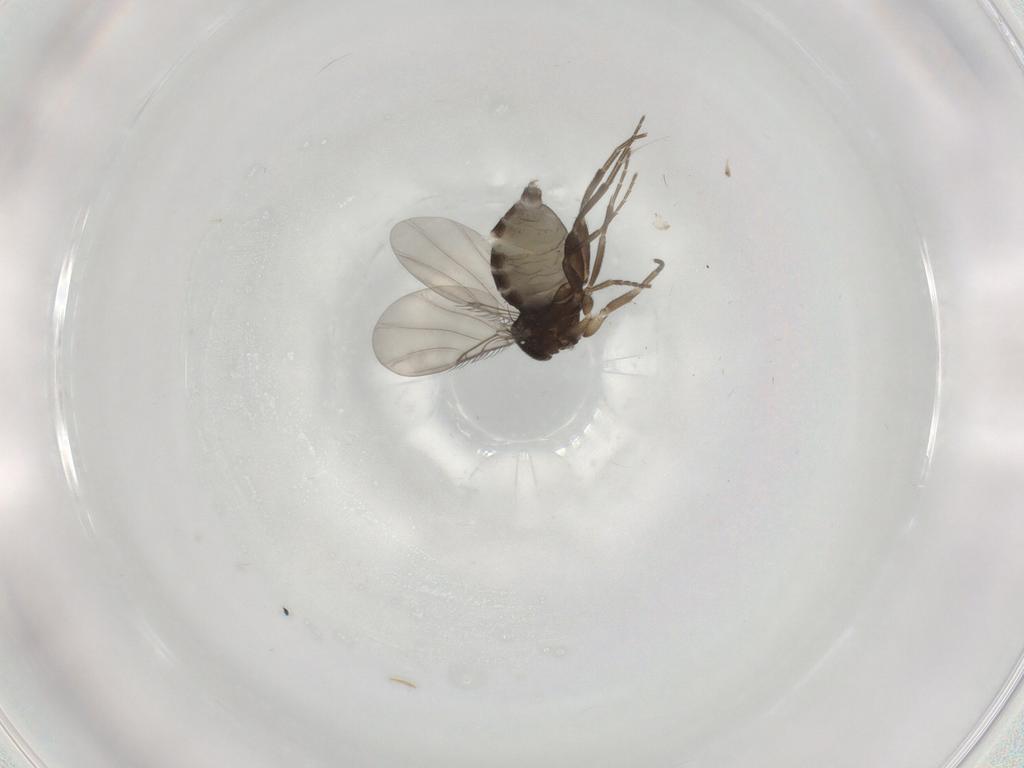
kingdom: Animalia
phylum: Arthropoda
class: Insecta
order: Diptera
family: Phoridae
